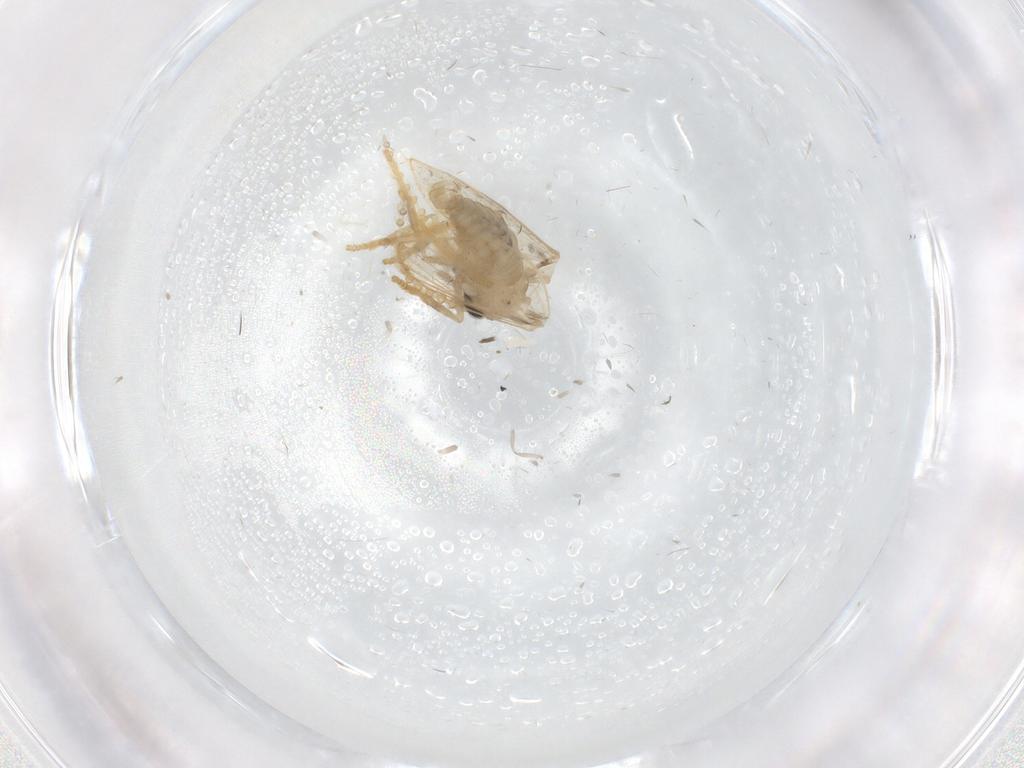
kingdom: Animalia
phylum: Arthropoda
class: Insecta
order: Diptera
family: Psychodidae
